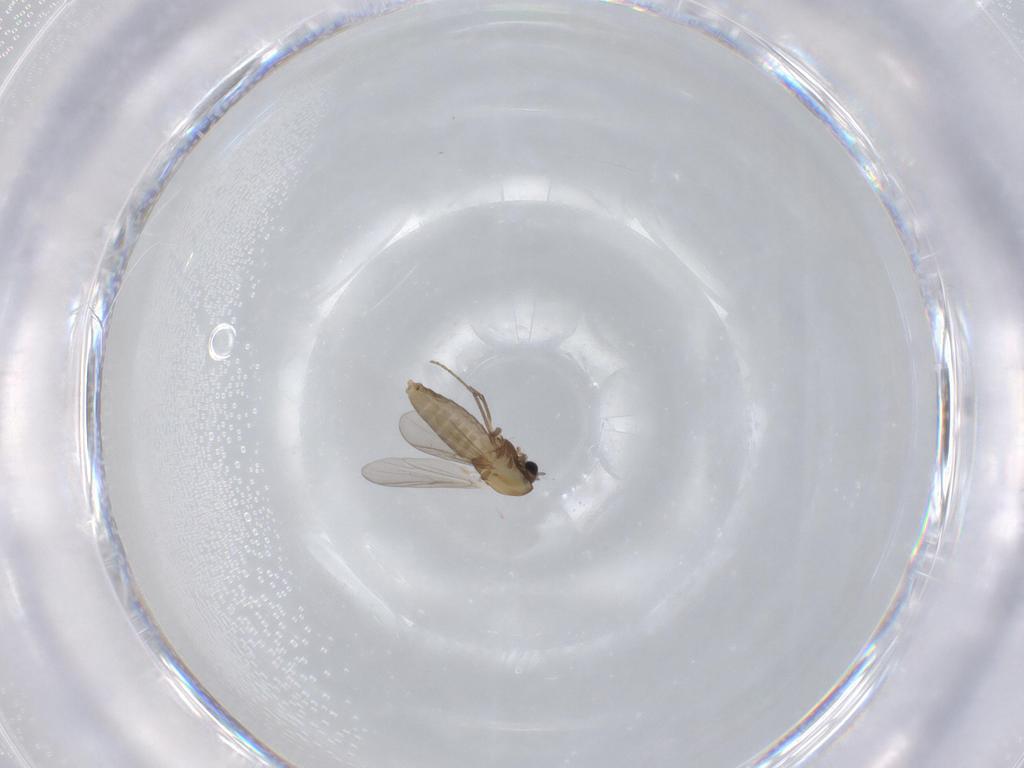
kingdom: Animalia
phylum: Arthropoda
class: Insecta
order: Diptera
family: Chironomidae
